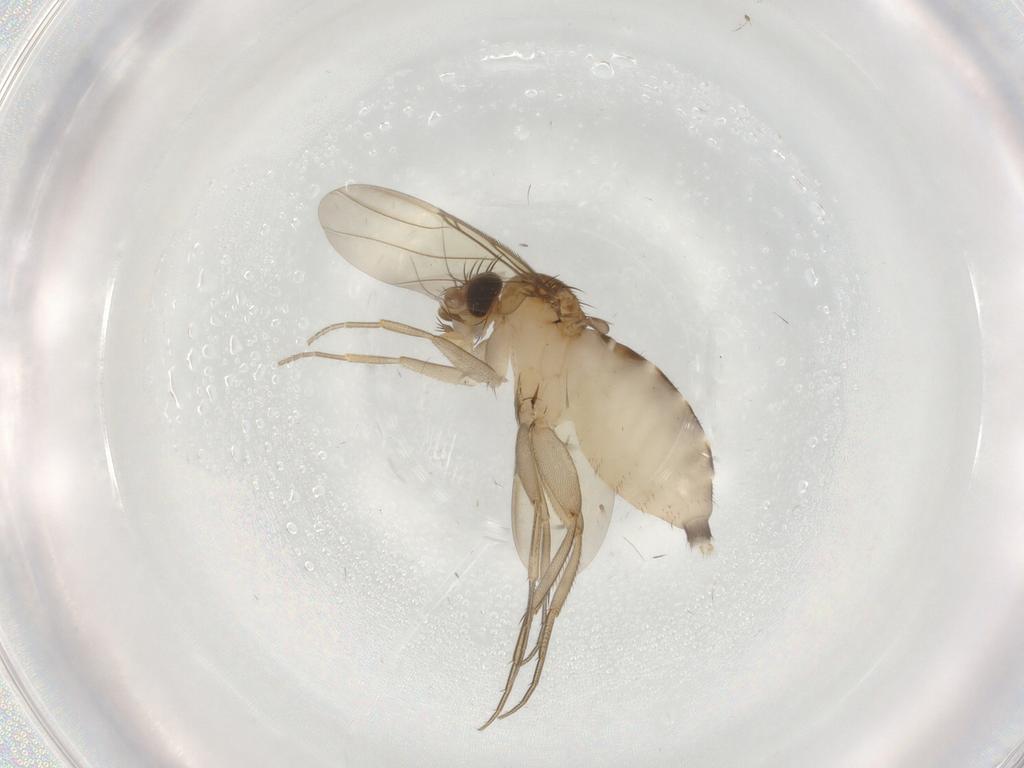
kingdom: Animalia
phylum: Arthropoda
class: Insecta
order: Diptera
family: Phoridae
